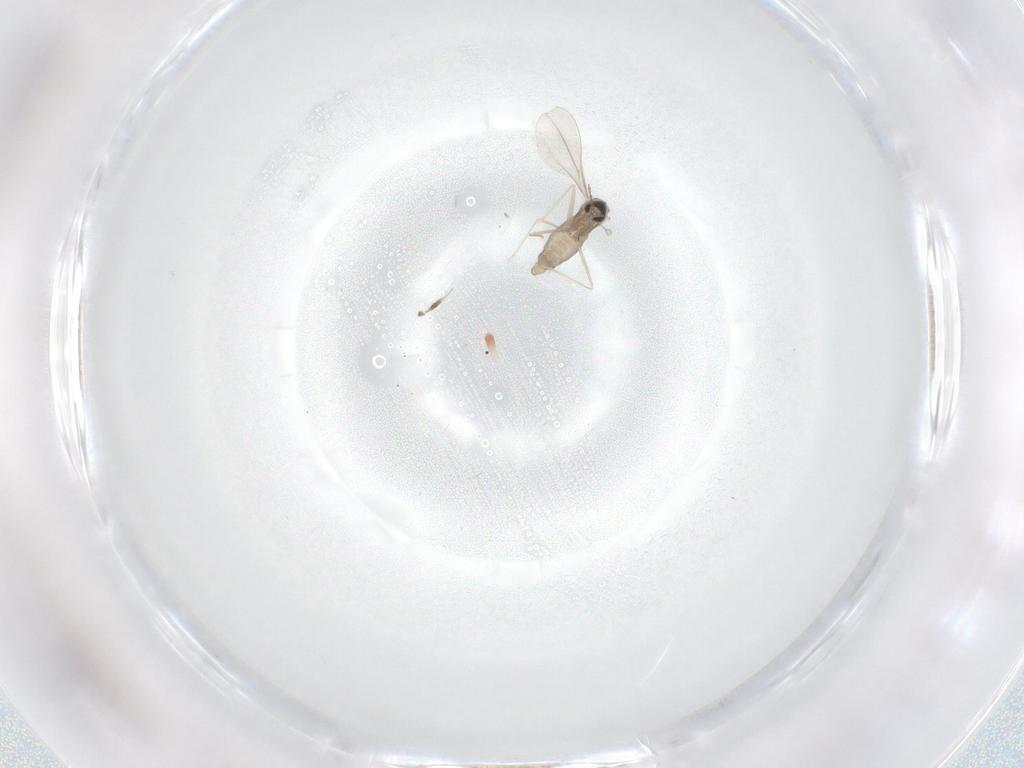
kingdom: Animalia
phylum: Arthropoda
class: Insecta
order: Diptera
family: Cecidomyiidae
